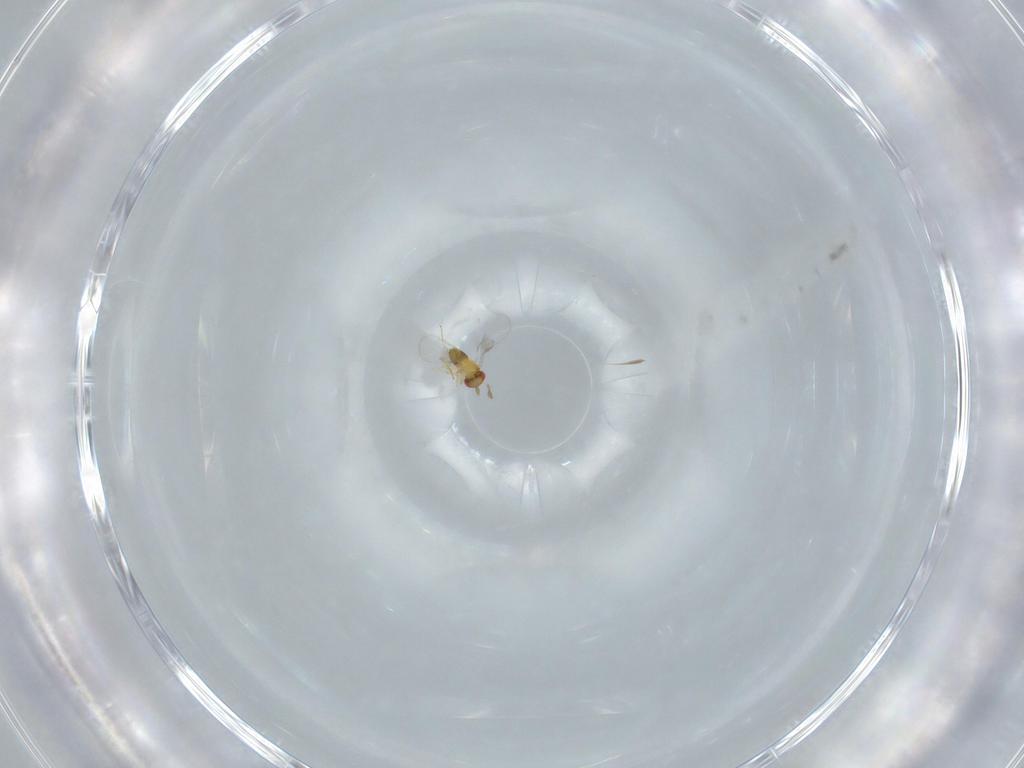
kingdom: Animalia
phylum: Arthropoda
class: Insecta
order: Hymenoptera
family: Trichogrammatidae
